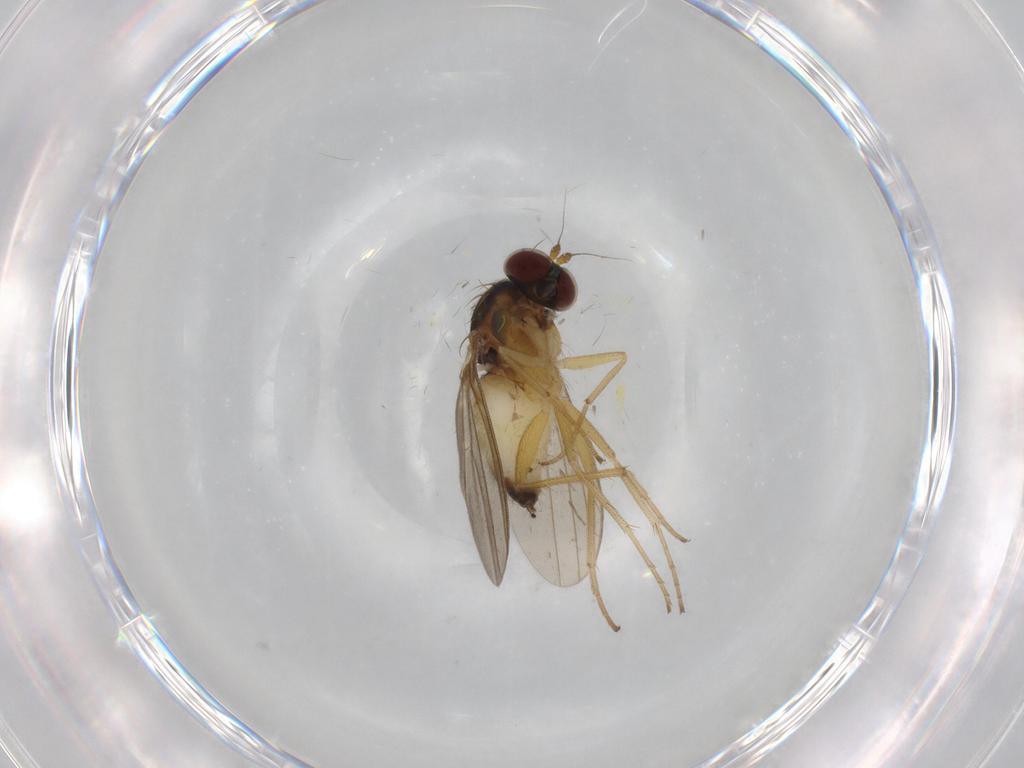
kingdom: Animalia
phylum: Arthropoda
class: Insecta
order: Diptera
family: Dolichopodidae
